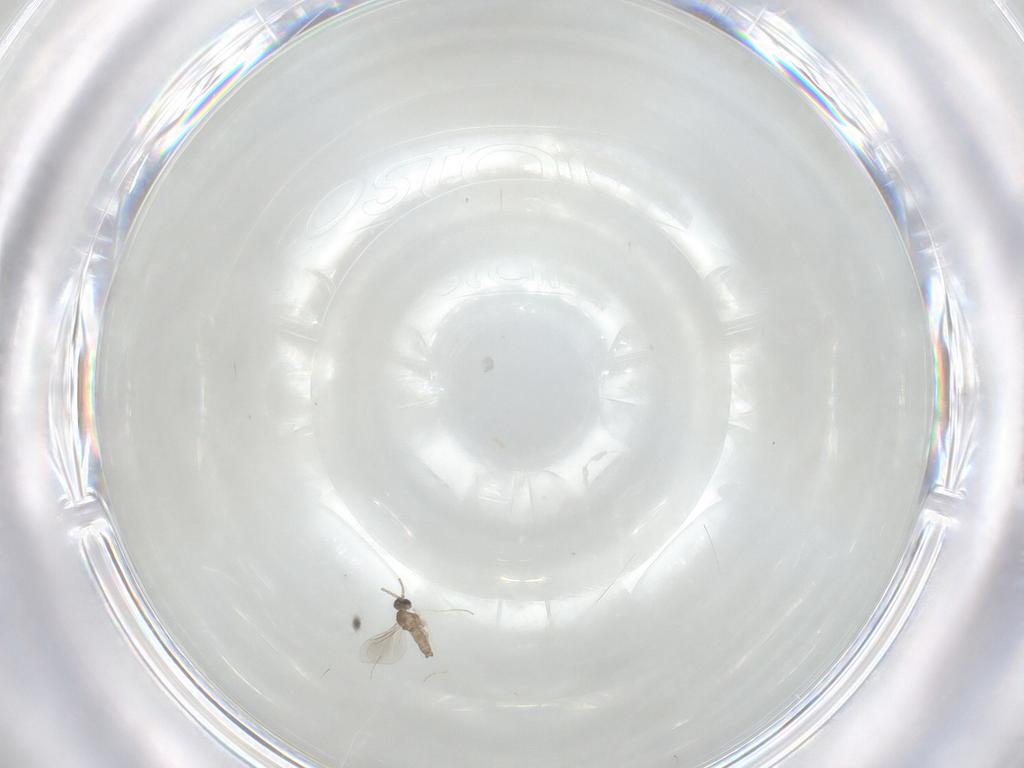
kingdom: Animalia
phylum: Arthropoda
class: Insecta
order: Diptera
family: Cecidomyiidae
